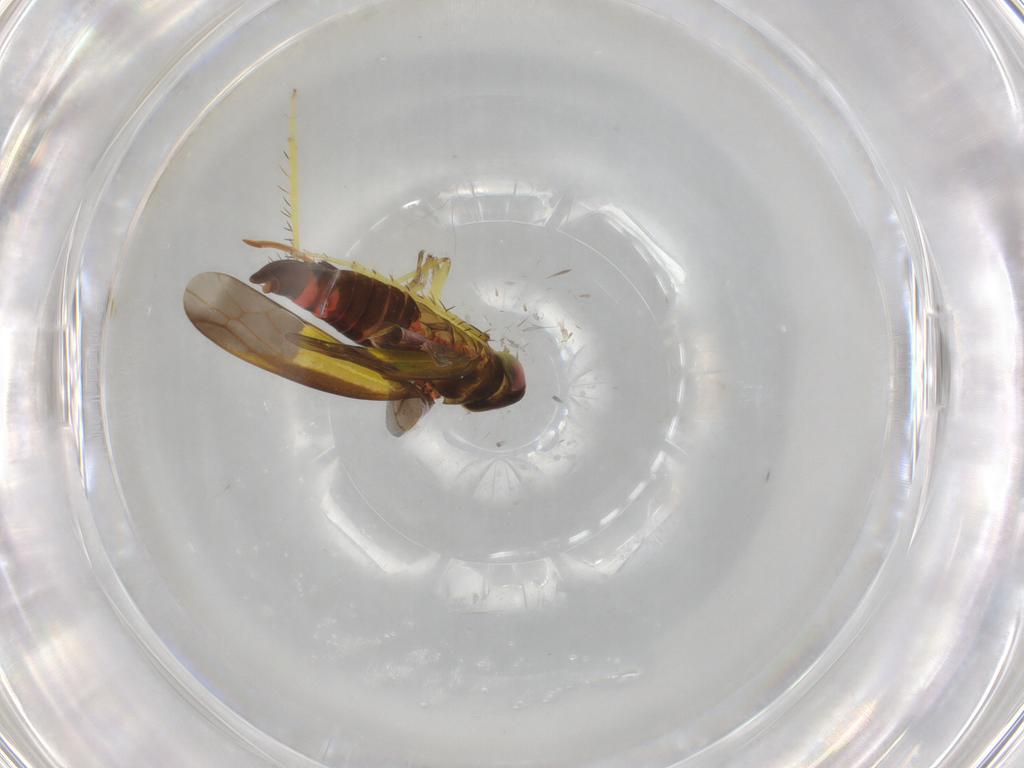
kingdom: Animalia
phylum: Arthropoda
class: Insecta
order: Hemiptera
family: Cicadellidae
